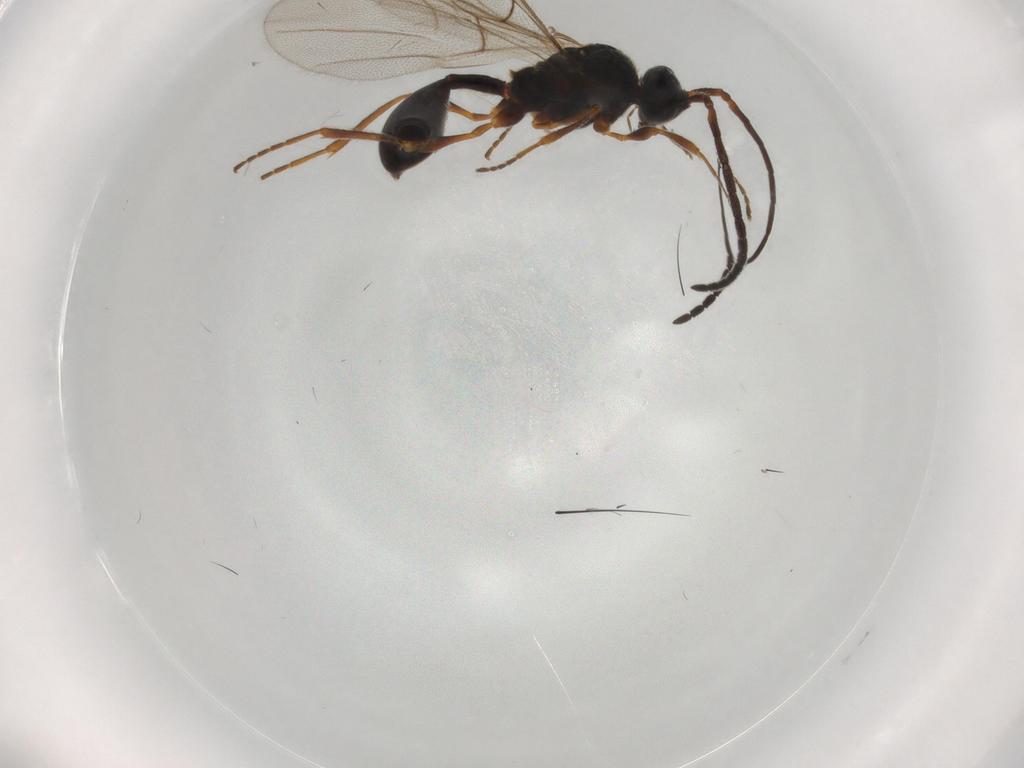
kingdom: Animalia
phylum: Arthropoda
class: Insecta
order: Hymenoptera
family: Diapriidae
